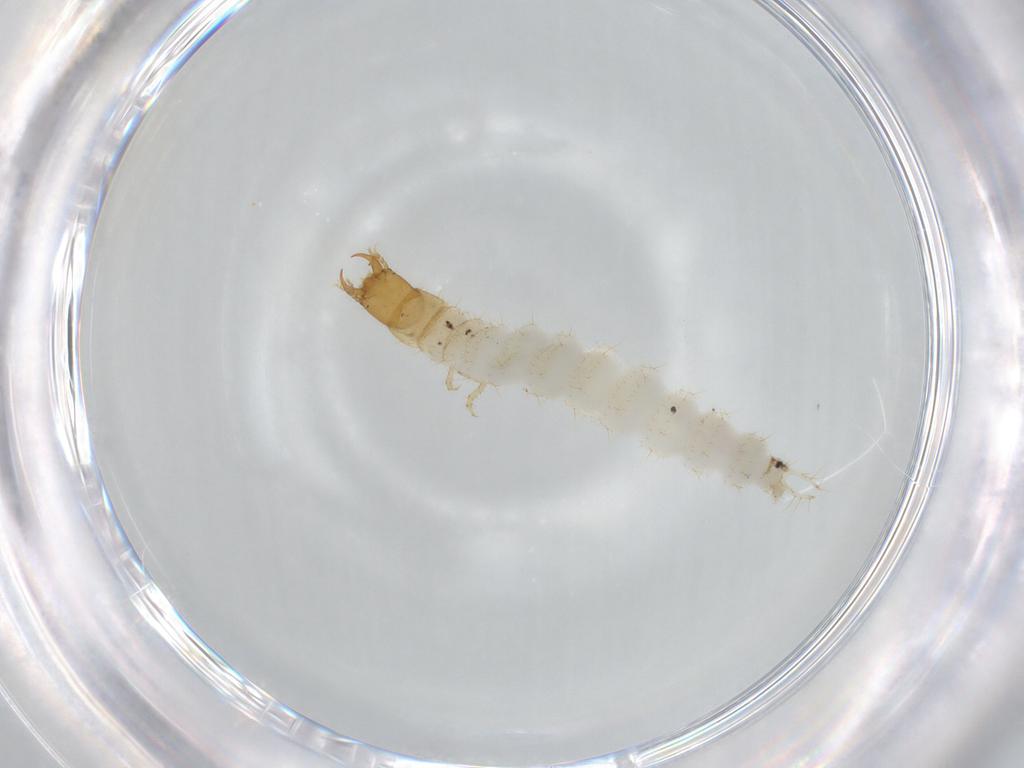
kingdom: Animalia
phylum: Arthropoda
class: Insecta
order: Coleoptera
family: Carabidae
